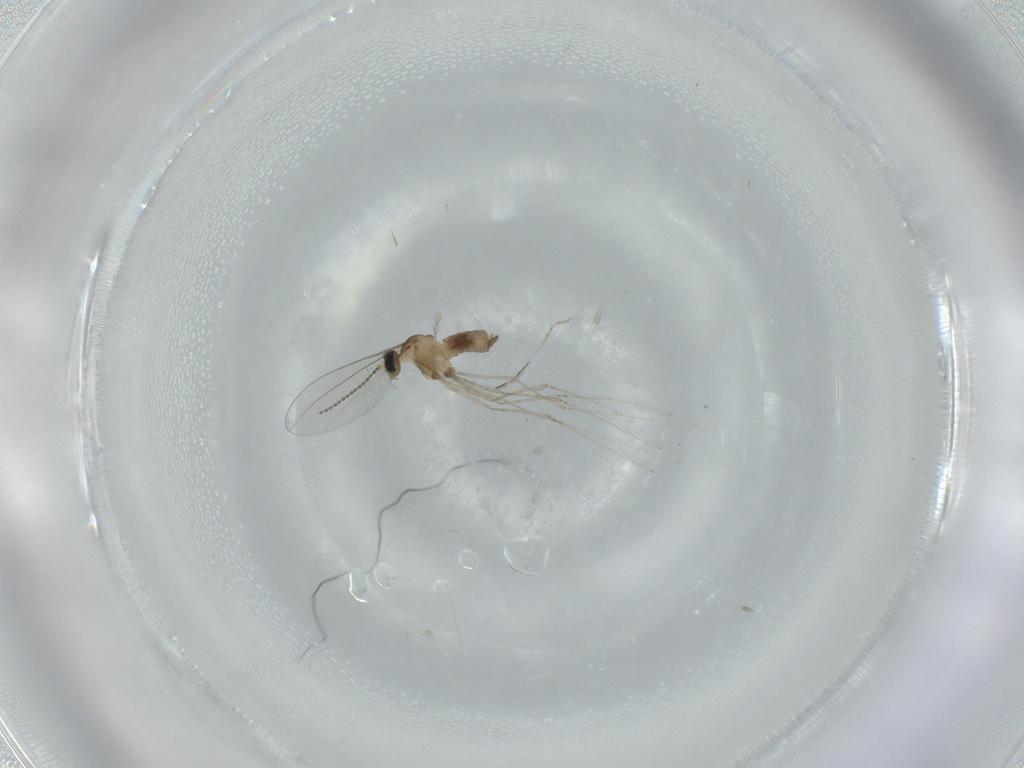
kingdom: Animalia
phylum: Arthropoda
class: Insecta
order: Diptera
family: Cecidomyiidae
